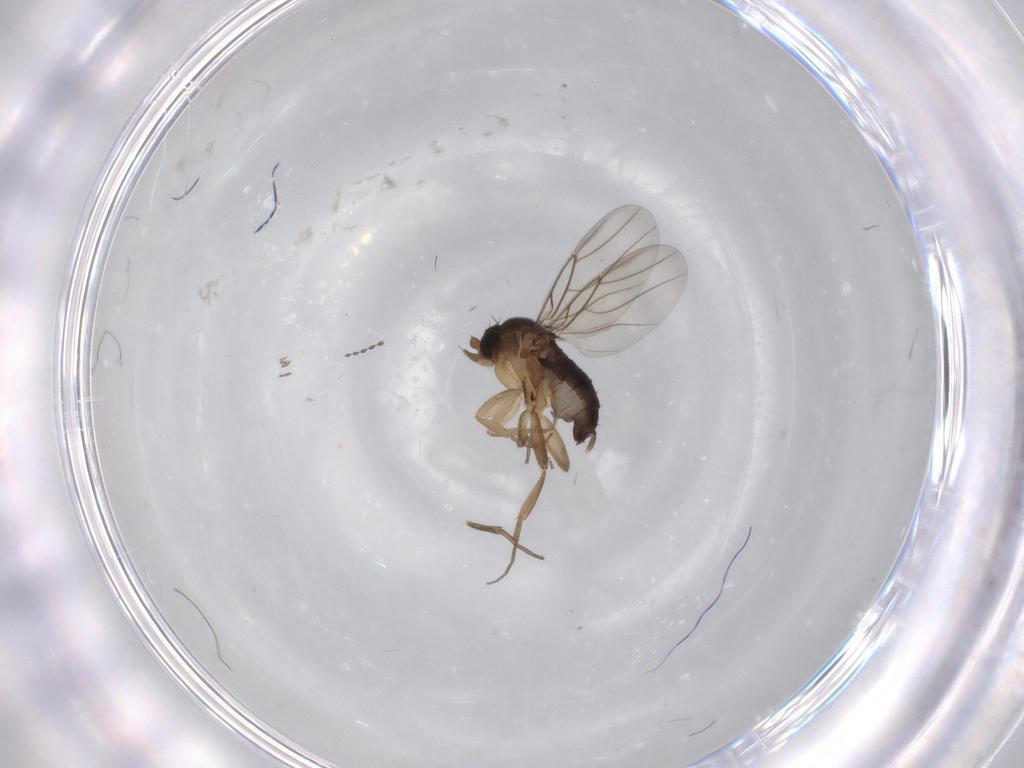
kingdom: Animalia
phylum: Arthropoda
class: Insecta
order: Diptera
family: Phoridae
